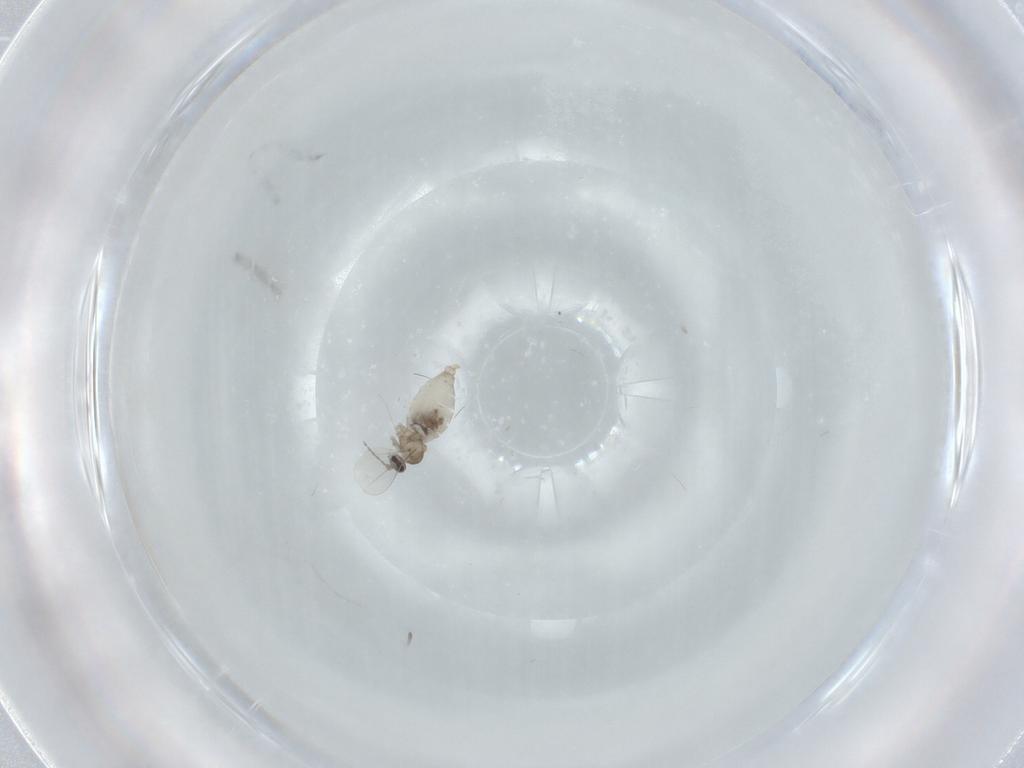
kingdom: Animalia
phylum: Arthropoda
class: Insecta
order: Diptera
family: Cecidomyiidae
